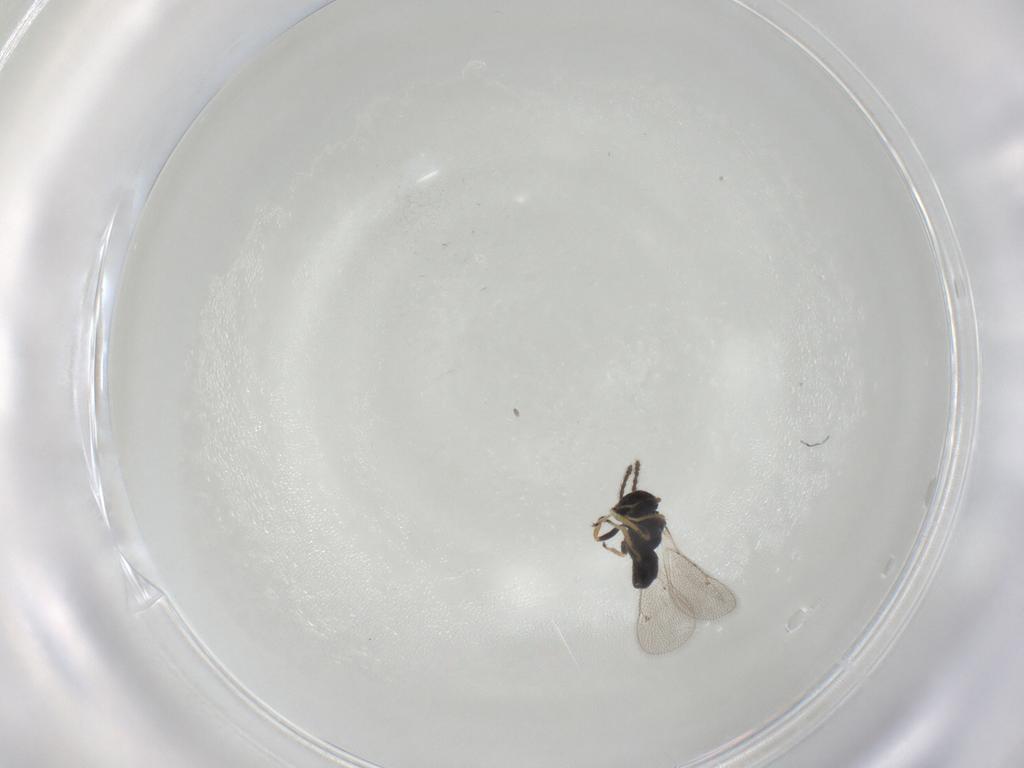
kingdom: Animalia
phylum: Arthropoda
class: Insecta
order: Hymenoptera
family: Eulophidae
